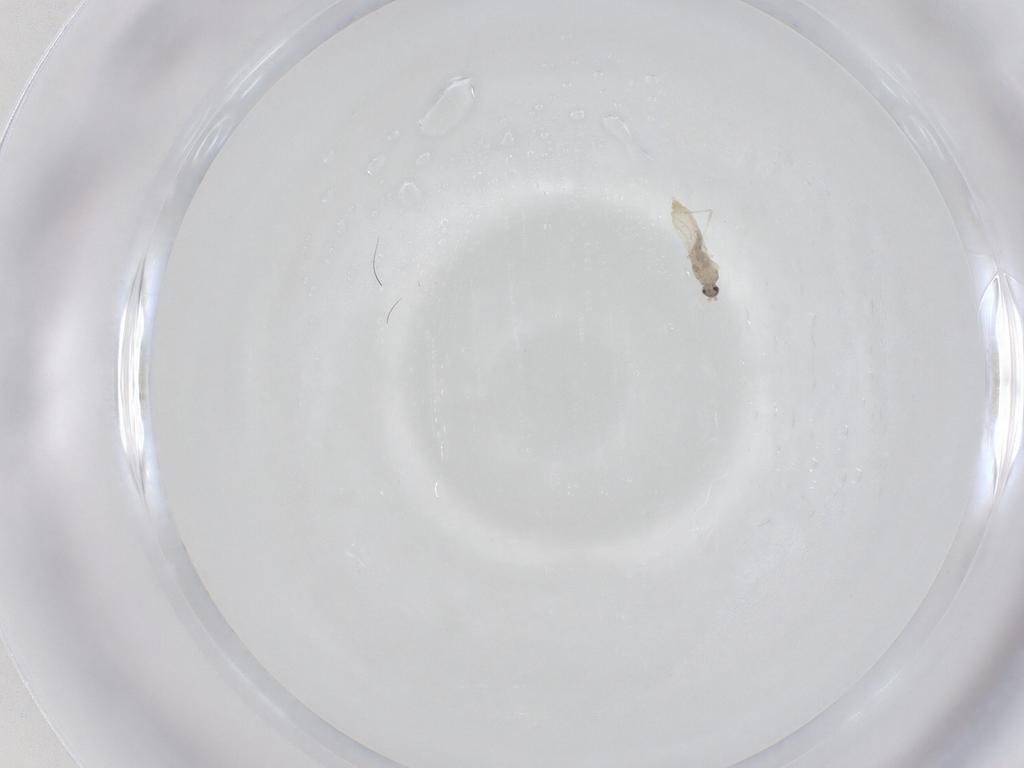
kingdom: Animalia
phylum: Arthropoda
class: Insecta
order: Diptera
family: Cecidomyiidae
